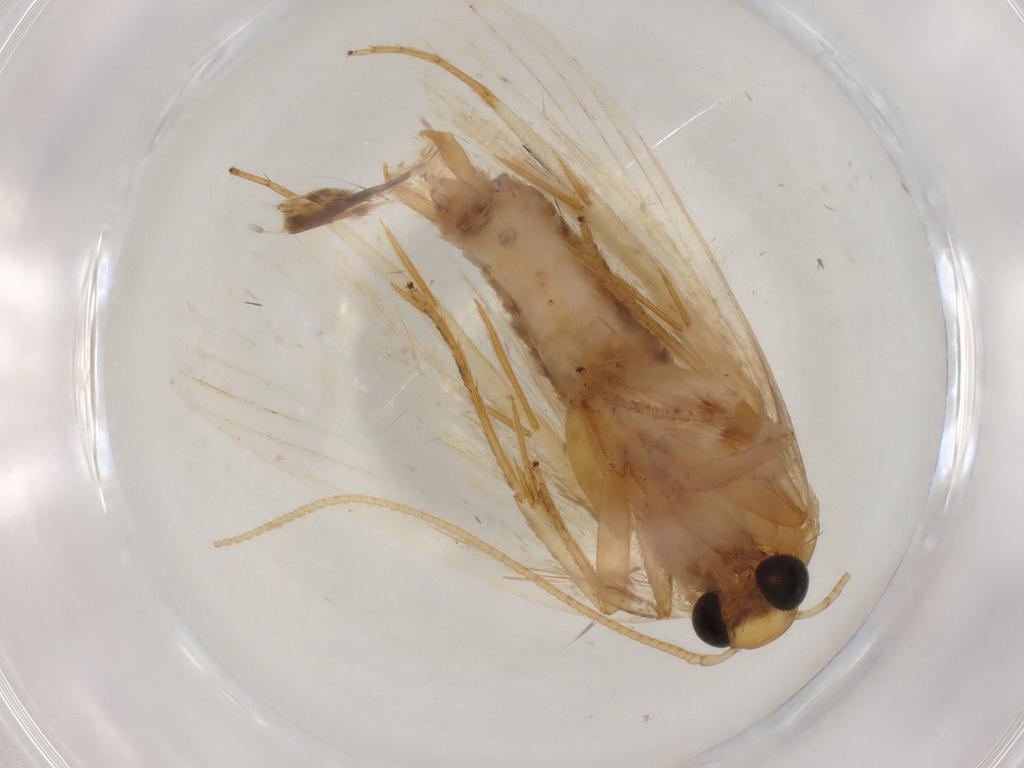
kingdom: Animalia
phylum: Arthropoda
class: Insecta
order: Lepidoptera
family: Depressariidae
